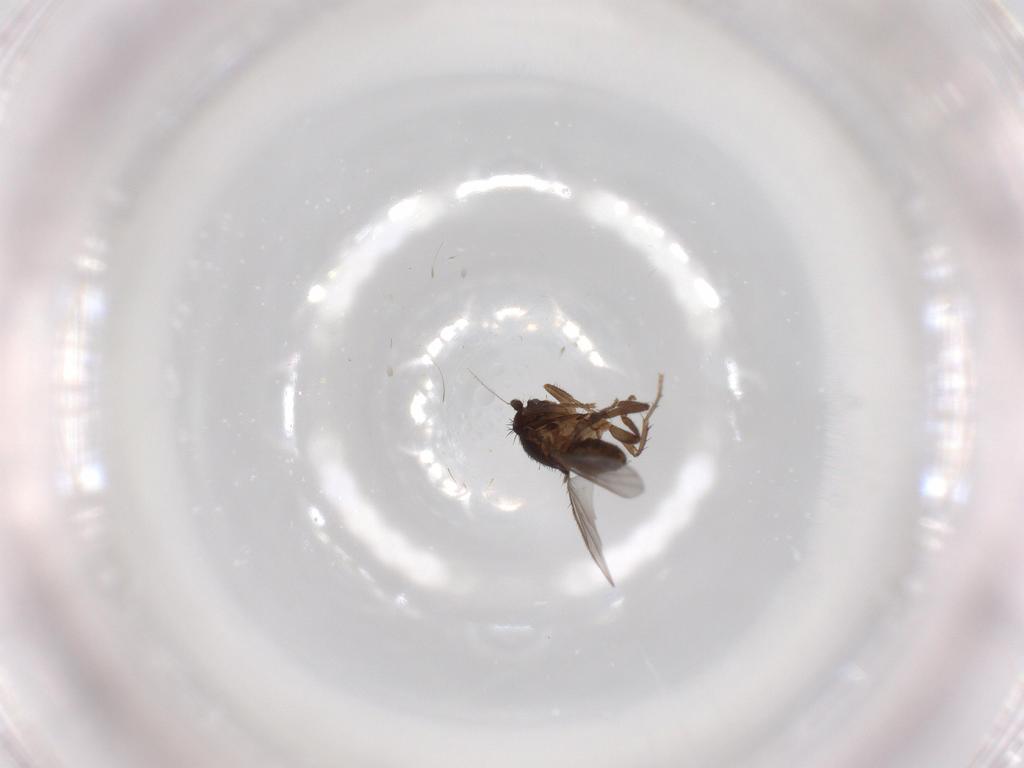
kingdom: Animalia
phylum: Arthropoda
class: Insecta
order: Diptera
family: Sphaeroceridae
